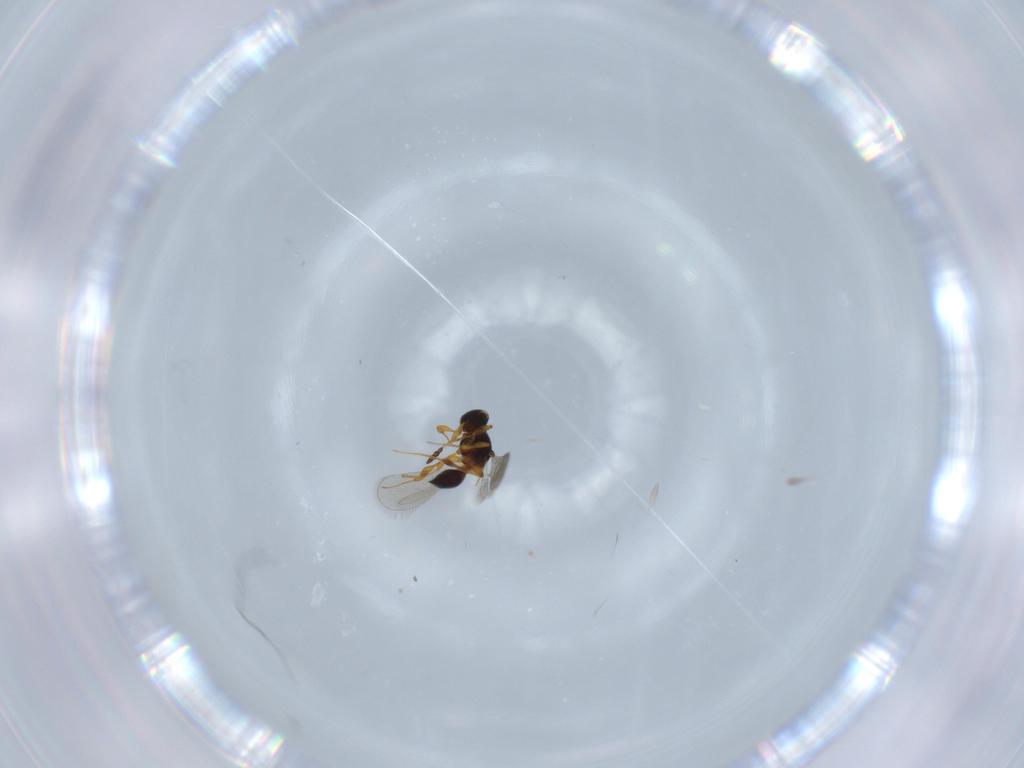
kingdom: Animalia
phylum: Arthropoda
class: Insecta
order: Hymenoptera
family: Platygastridae
